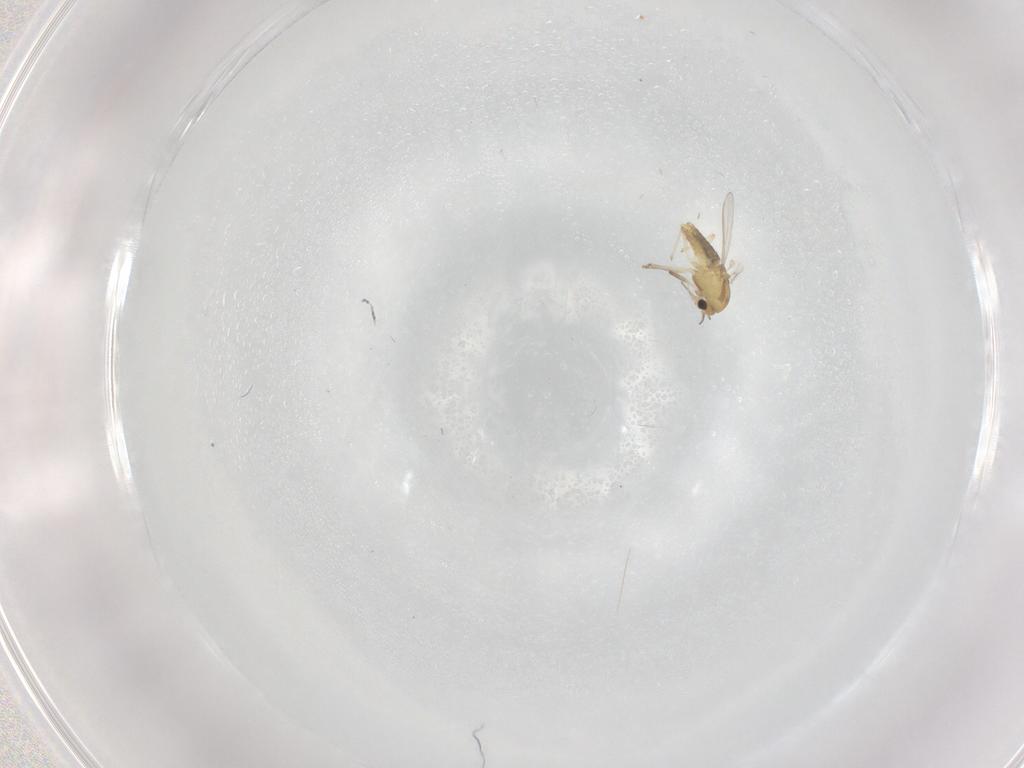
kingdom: Animalia
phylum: Arthropoda
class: Insecta
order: Diptera
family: Chironomidae
